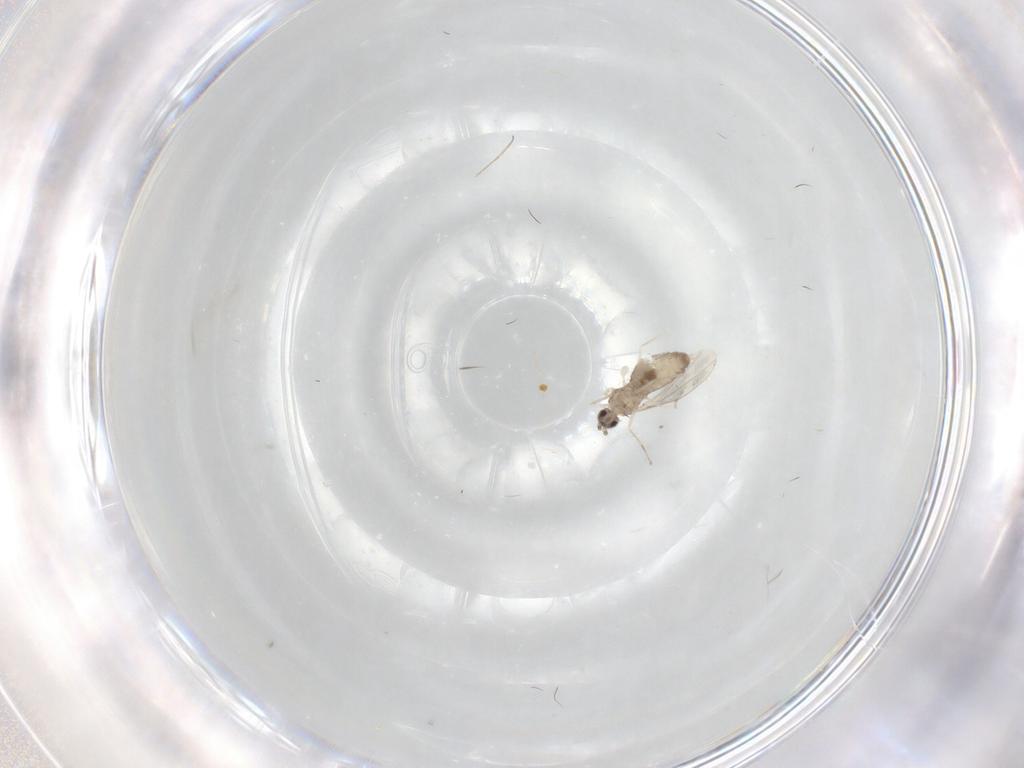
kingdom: Animalia
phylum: Arthropoda
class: Insecta
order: Diptera
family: Cecidomyiidae
